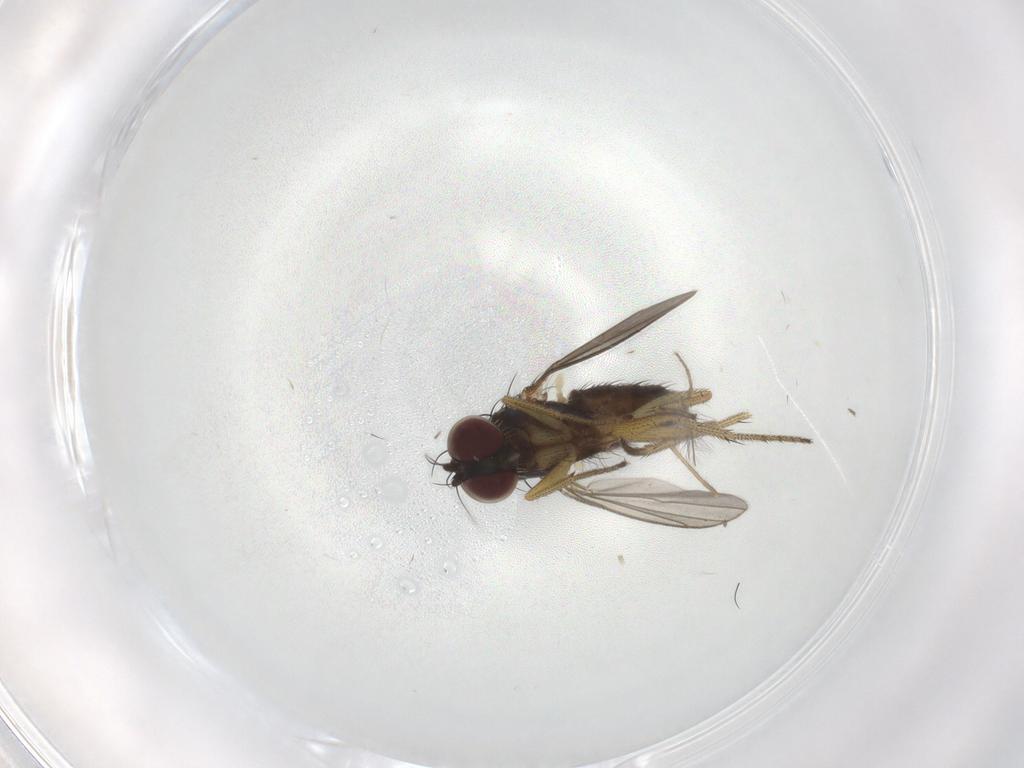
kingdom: Animalia
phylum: Arthropoda
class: Insecta
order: Diptera
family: Chironomidae
